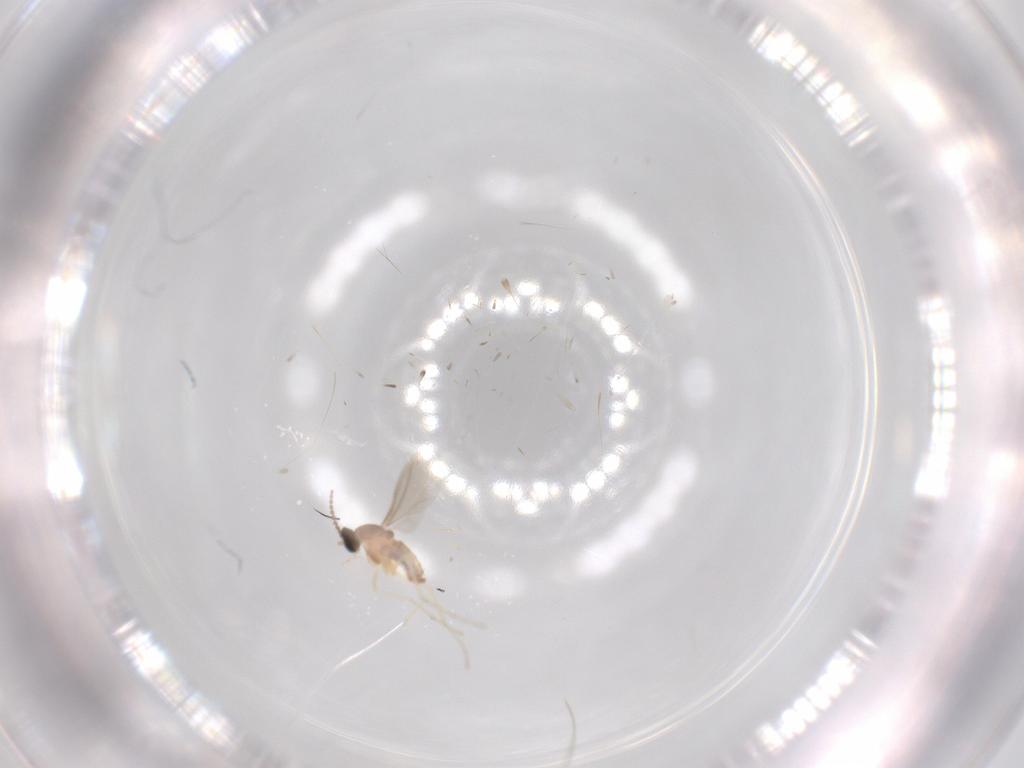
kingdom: Animalia
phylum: Arthropoda
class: Insecta
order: Diptera
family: Cecidomyiidae
